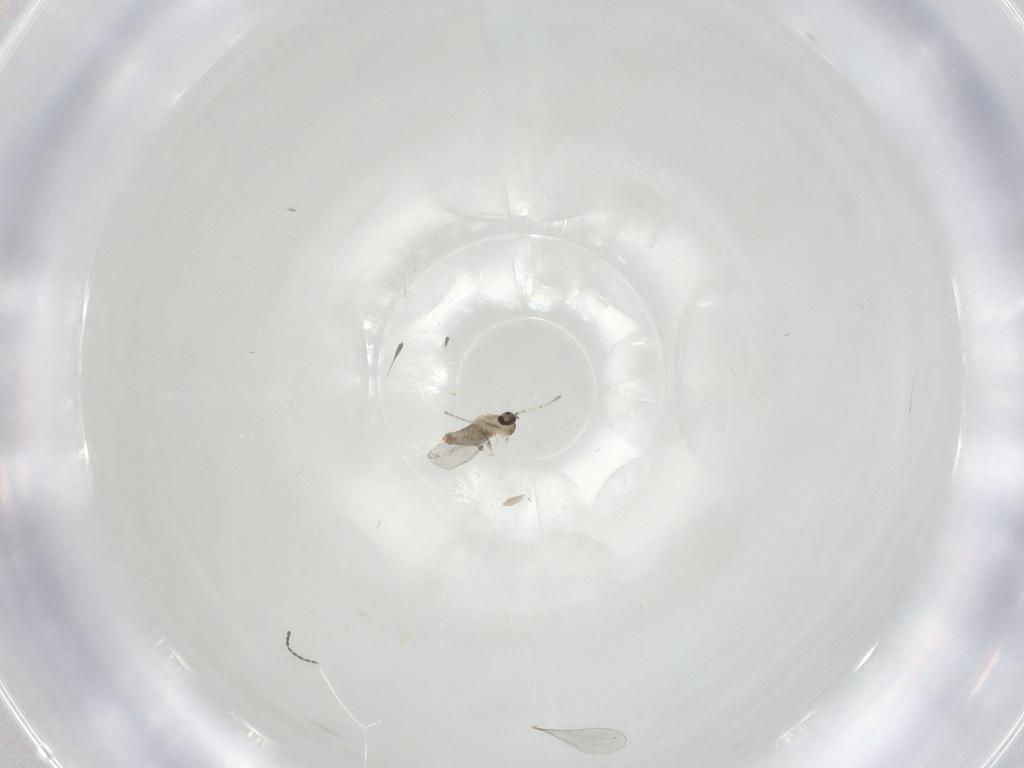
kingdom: Animalia
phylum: Arthropoda
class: Insecta
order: Diptera
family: Psychodidae
